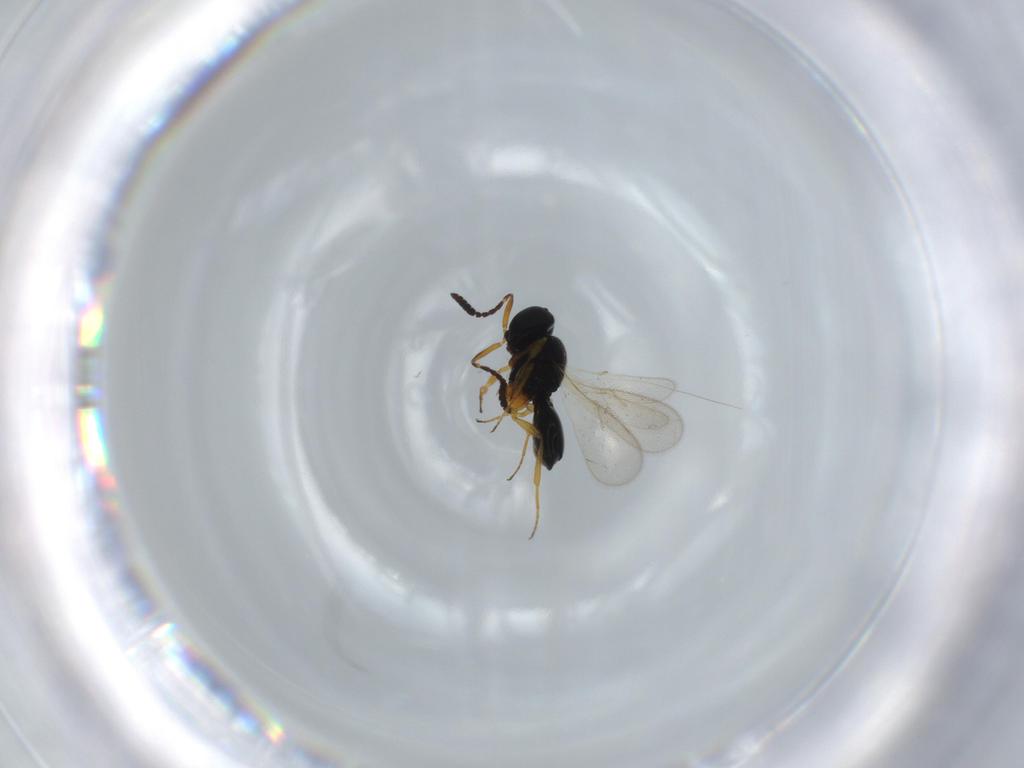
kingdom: Animalia
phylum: Arthropoda
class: Insecta
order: Hymenoptera
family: Scelionidae
